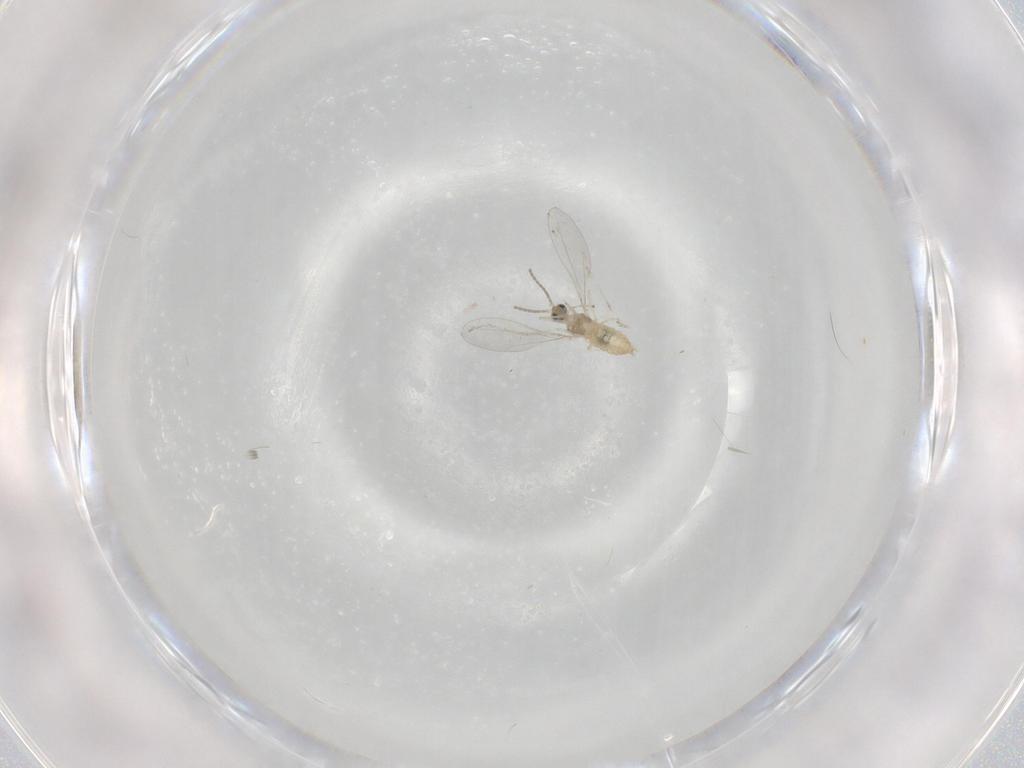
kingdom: Animalia
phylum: Arthropoda
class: Insecta
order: Diptera
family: Cecidomyiidae
